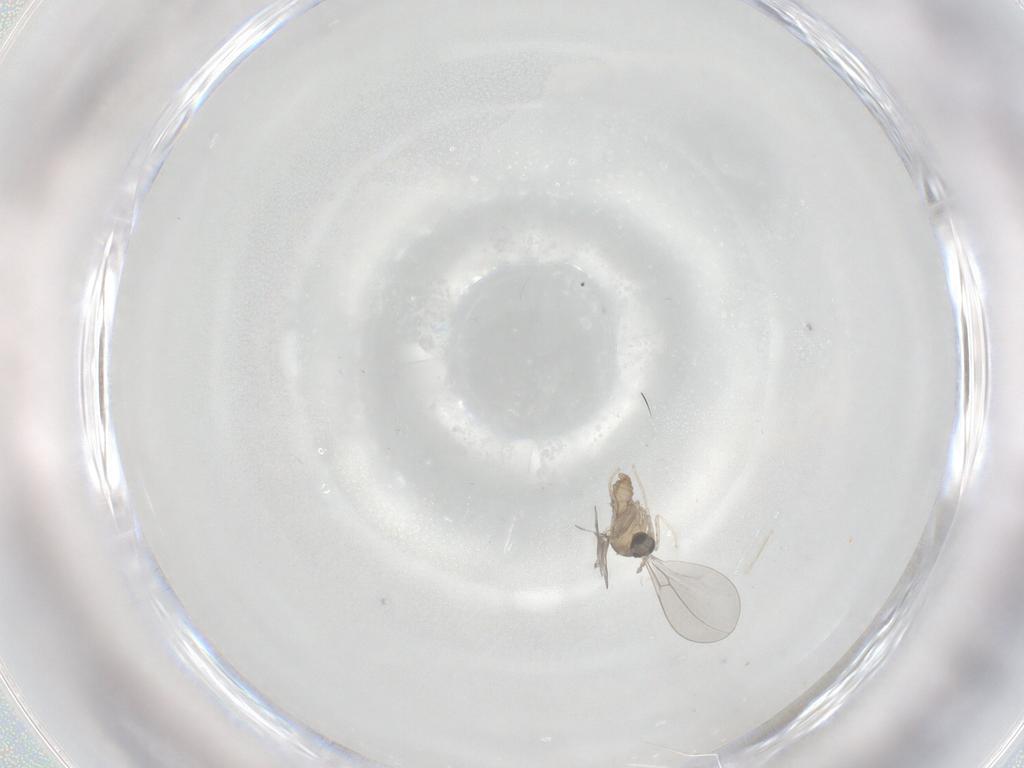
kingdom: Animalia
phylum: Arthropoda
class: Insecta
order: Diptera
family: Cecidomyiidae
